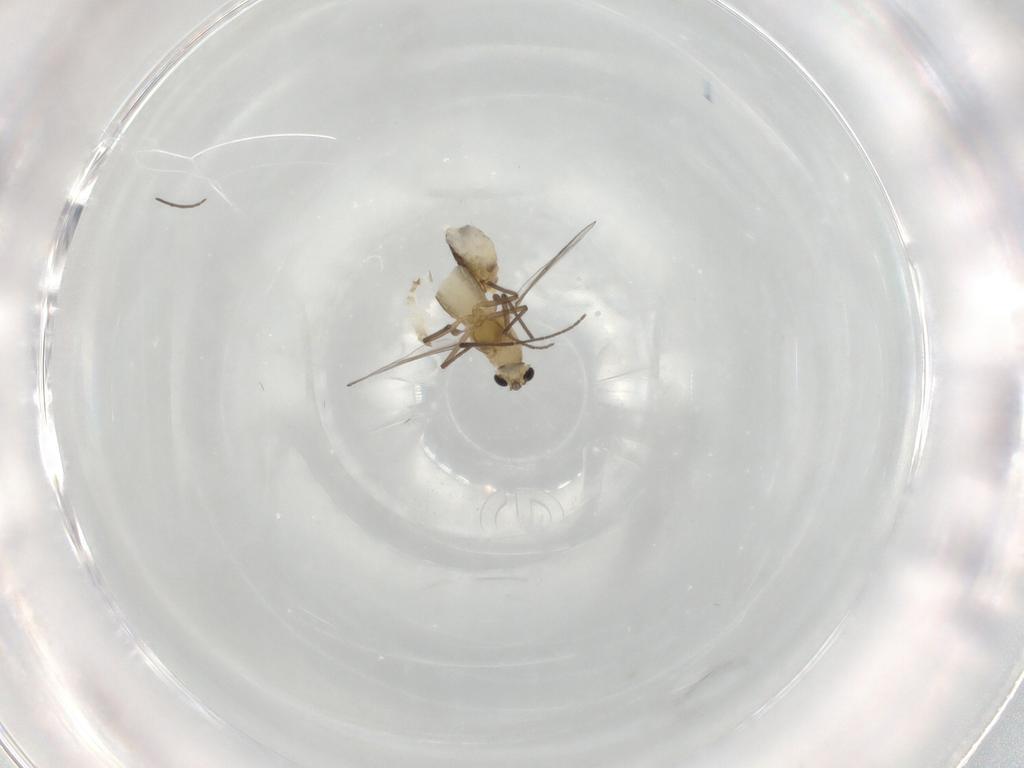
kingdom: Animalia
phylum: Arthropoda
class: Insecta
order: Diptera
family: Chironomidae
